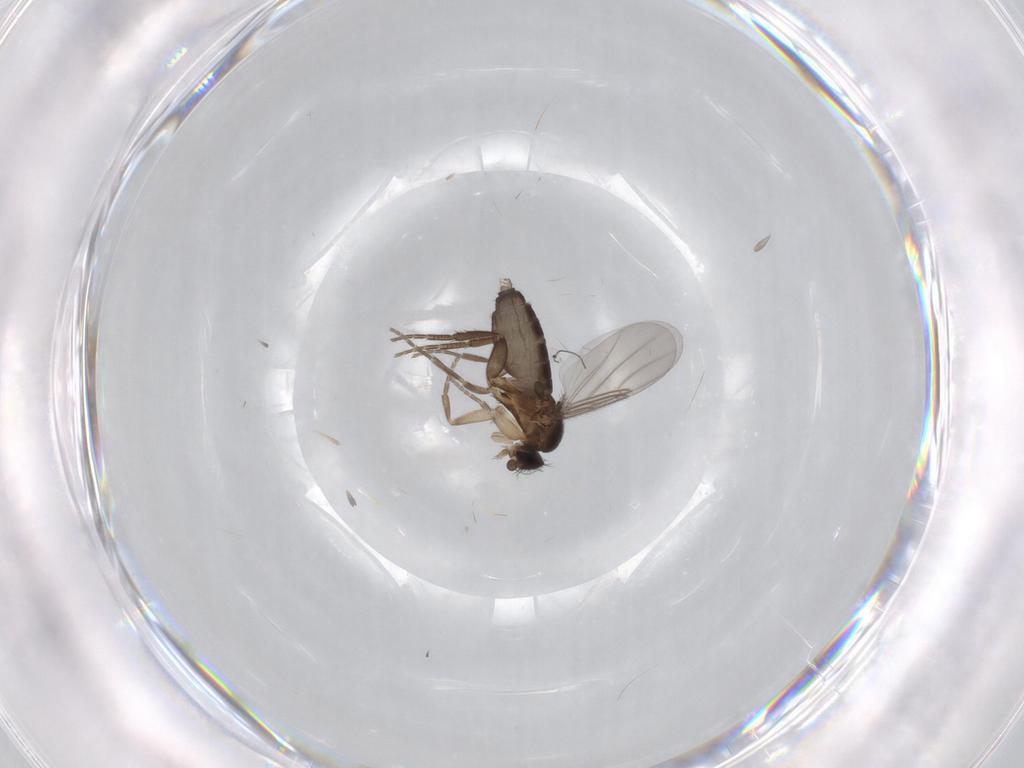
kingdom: Animalia
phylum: Arthropoda
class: Insecta
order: Diptera
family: Phoridae
